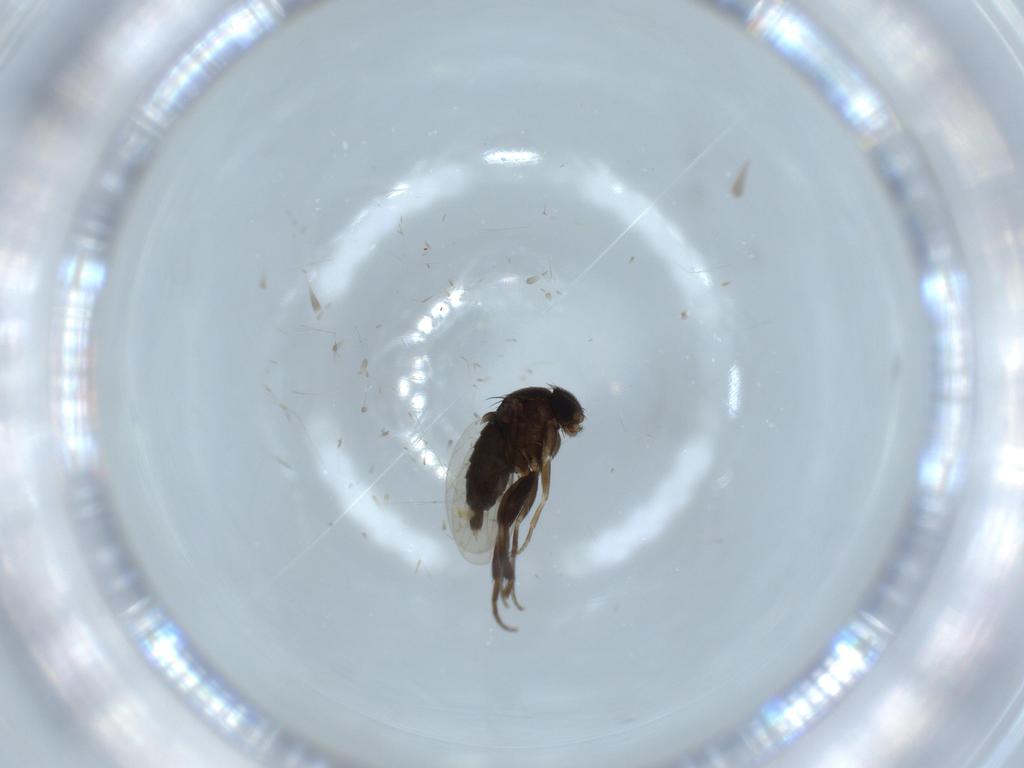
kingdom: Animalia
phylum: Arthropoda
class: Insecta
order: Diptera
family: Phoridae
